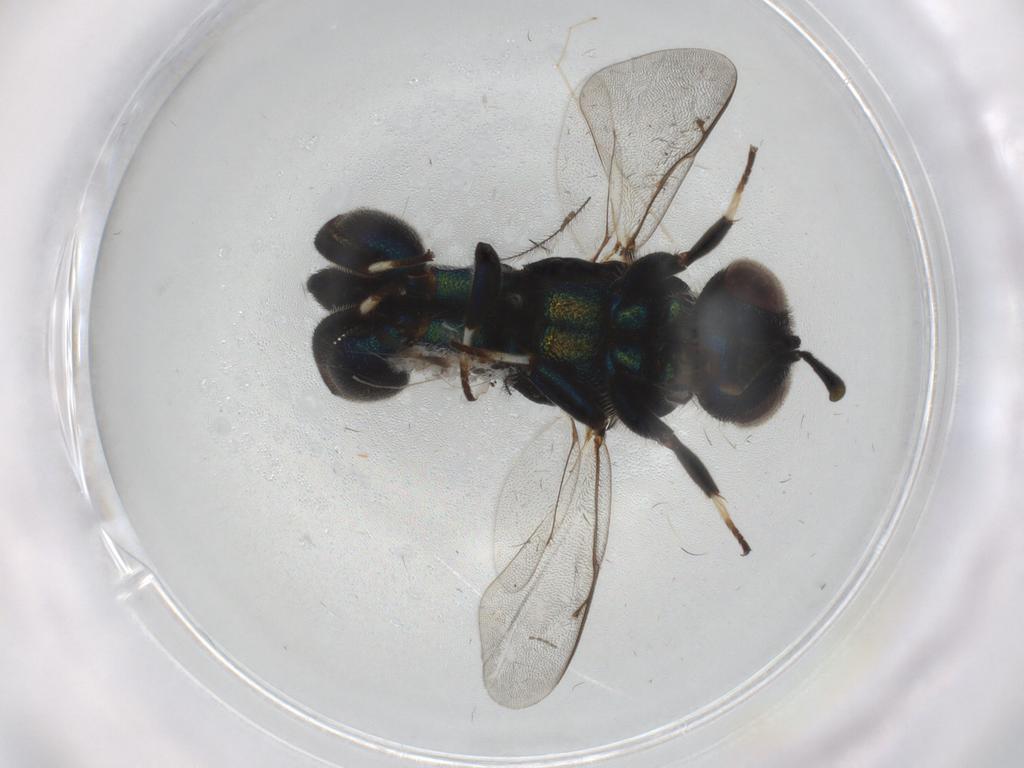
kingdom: Animalia
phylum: Arthropoda
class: Insecta
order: Hymenoptera
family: Pteromalidae
